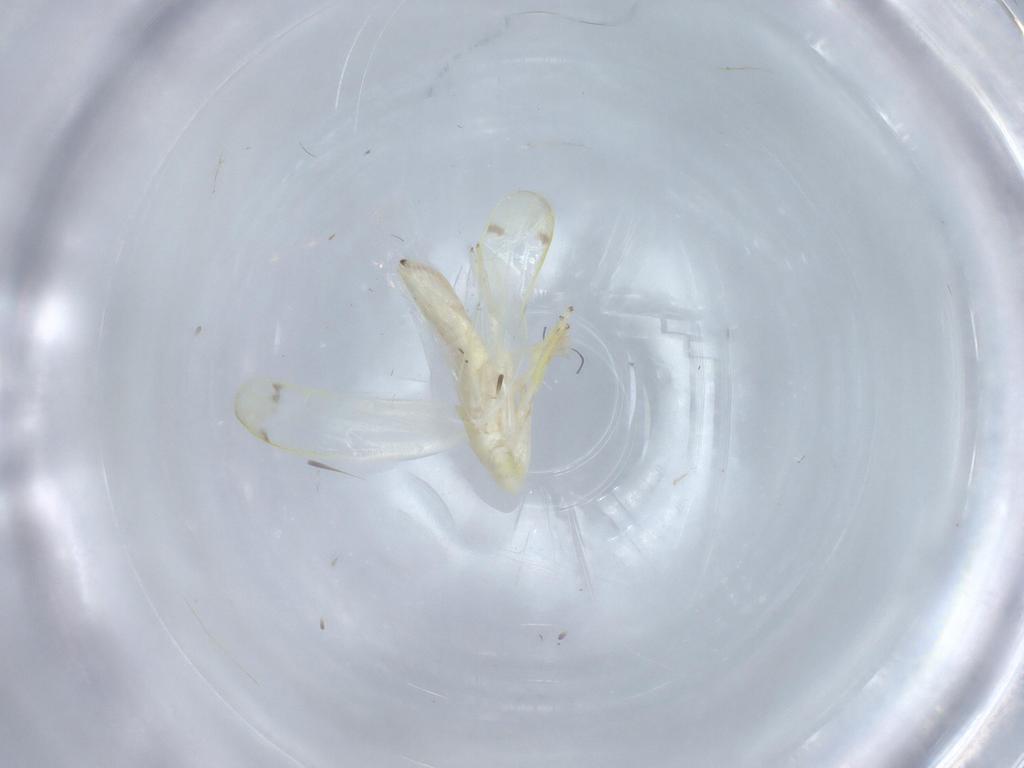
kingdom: Animalia
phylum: Arthropoda
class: Insecta
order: Hemiptera
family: Cicadellidae
